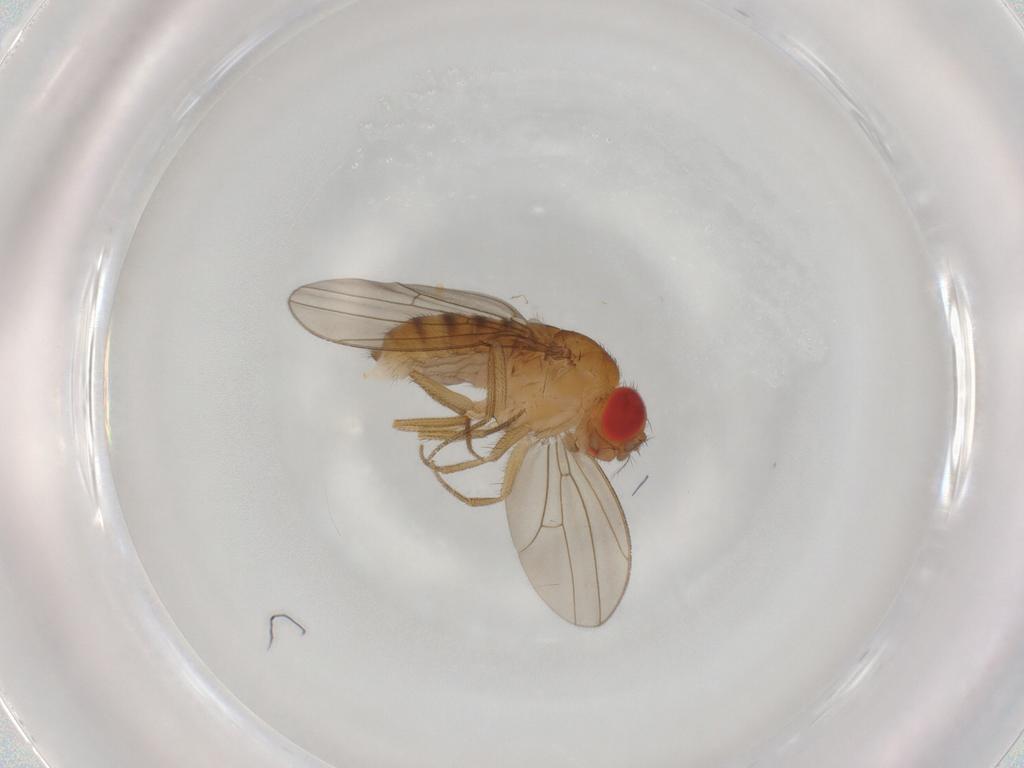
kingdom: Animalia
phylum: Arthropoda
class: Insecta
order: Diptera
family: Drosophilidae
